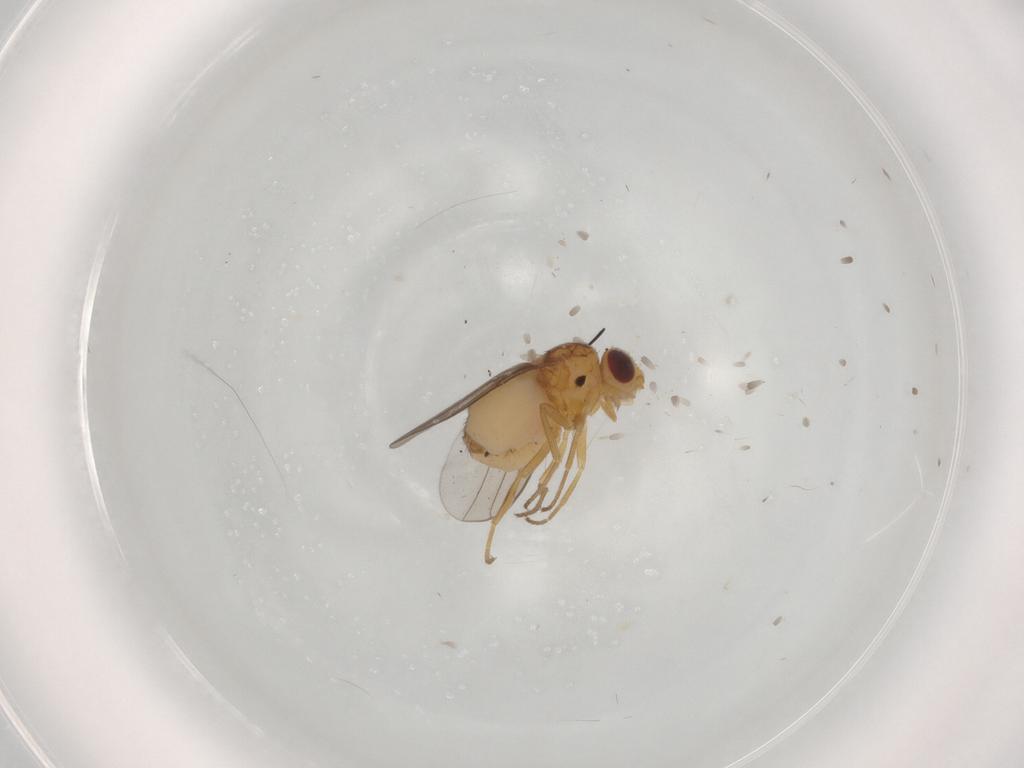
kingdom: Animalia
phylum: Arthropoda
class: Insecta
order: Diptera
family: Chloropidae
